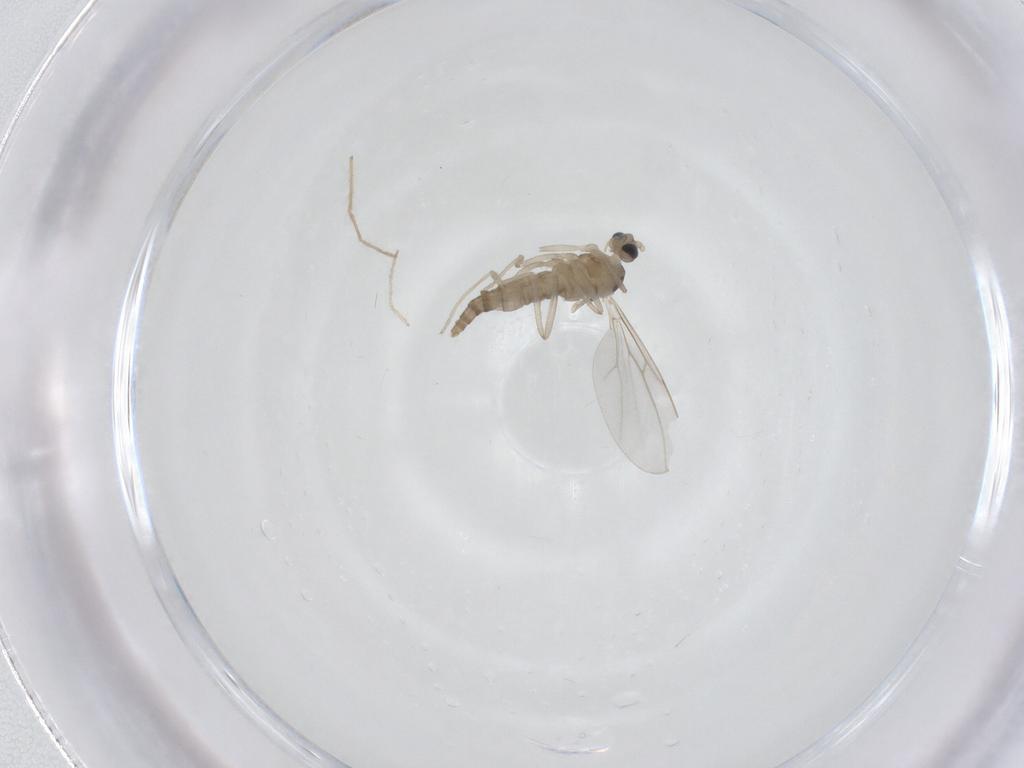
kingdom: Animalia
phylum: Arthropoda
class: Insecta
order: Diptera
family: Chironomidae
